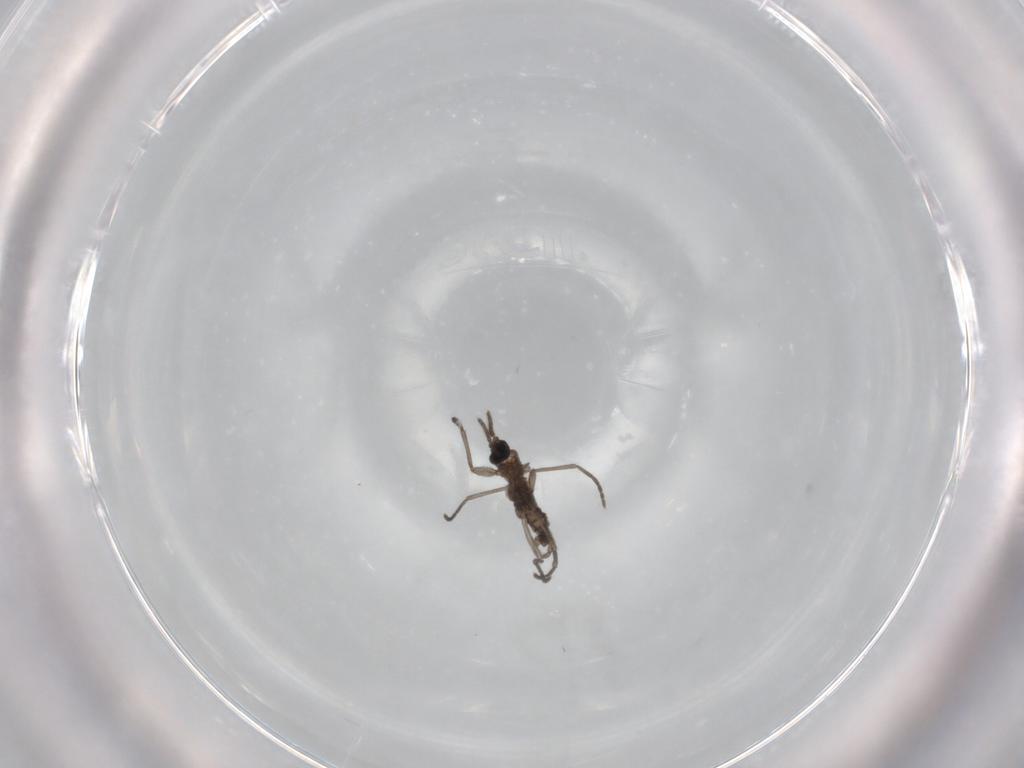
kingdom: Animalia
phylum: Arthropoda
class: Insecta
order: Diptera
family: Sciaridae
